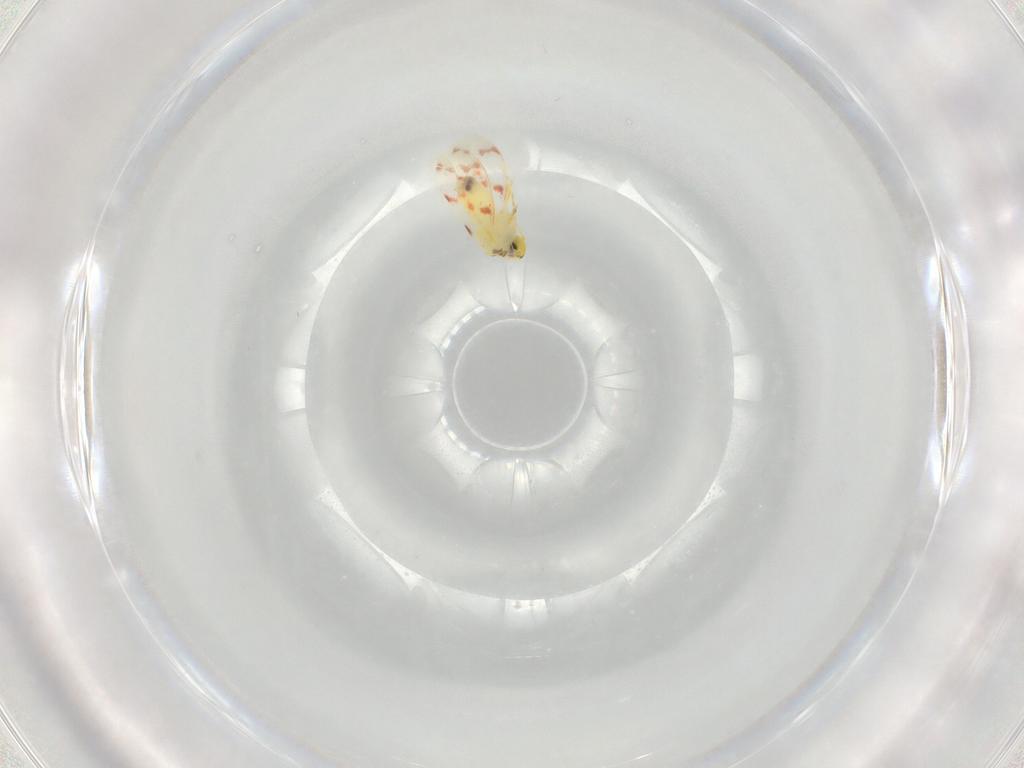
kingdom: Animalia
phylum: Arthropoda
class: Insecta
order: Hemiptera
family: Aleyrodidae
